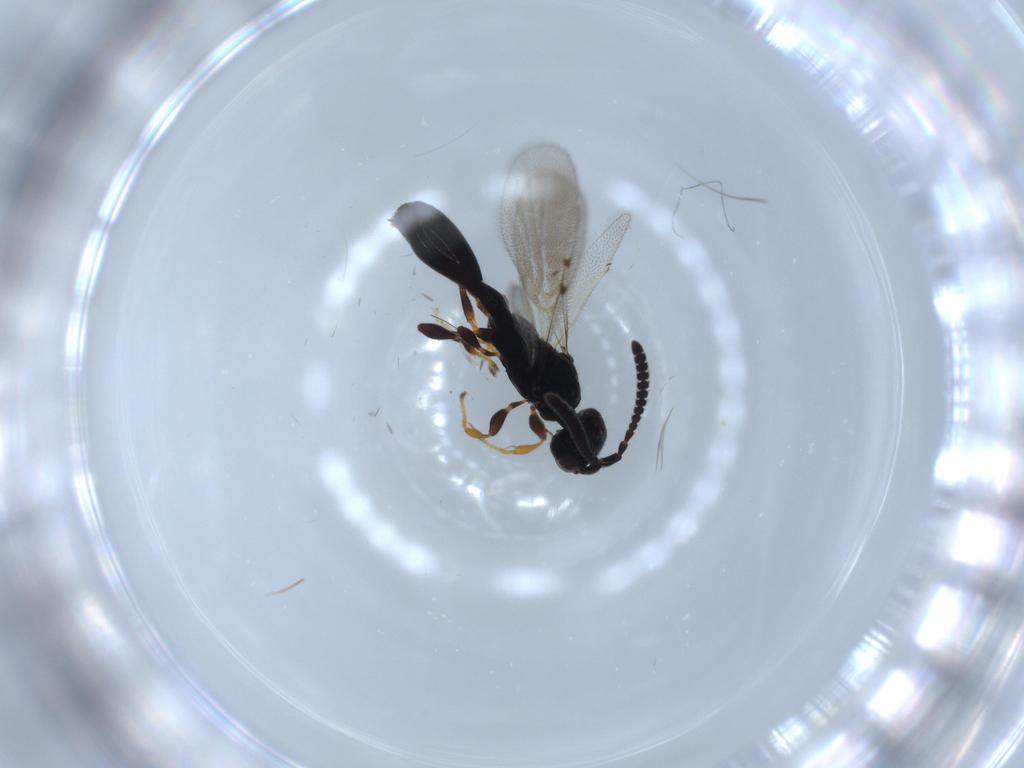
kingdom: Animalia
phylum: Arthropoda
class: Insecta
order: Hymenoptera
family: Diapriidae
